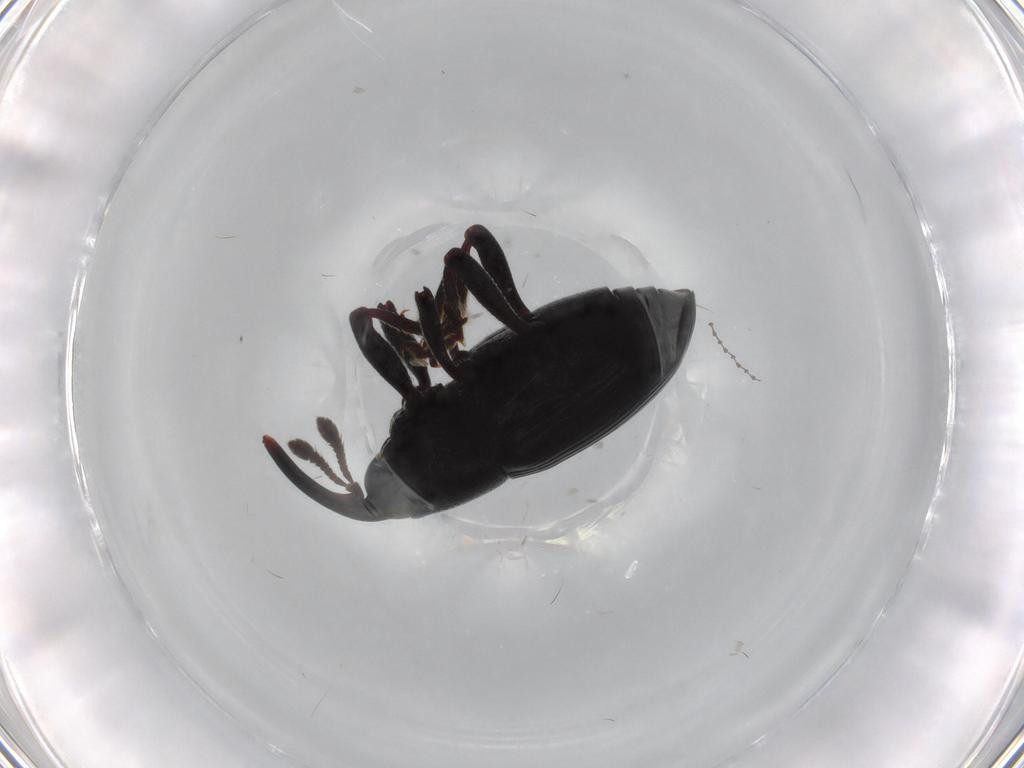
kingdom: Animalia
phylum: Arthropoda
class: Insecta
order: Coleoptera
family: Curculionidae
